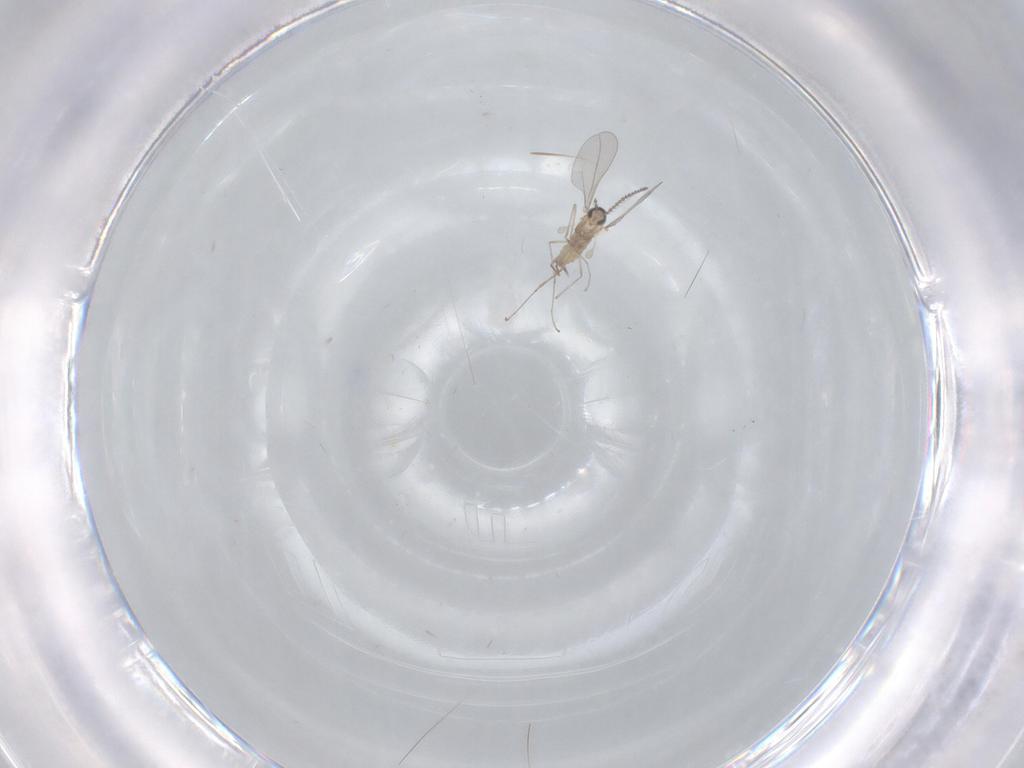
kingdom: Animalia
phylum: Arthropoda
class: Insecta
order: Diptera
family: Cecidomyiidae
